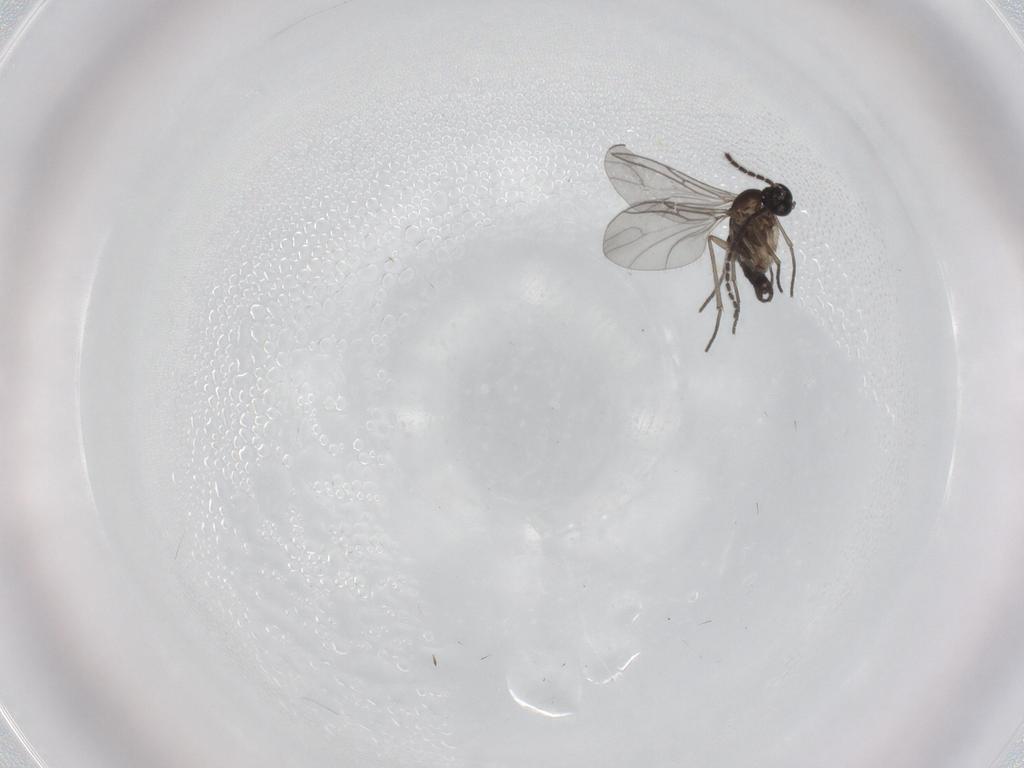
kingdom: Animalia
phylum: Arthropoda
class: Insecta
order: Diptera
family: Sciaridae
